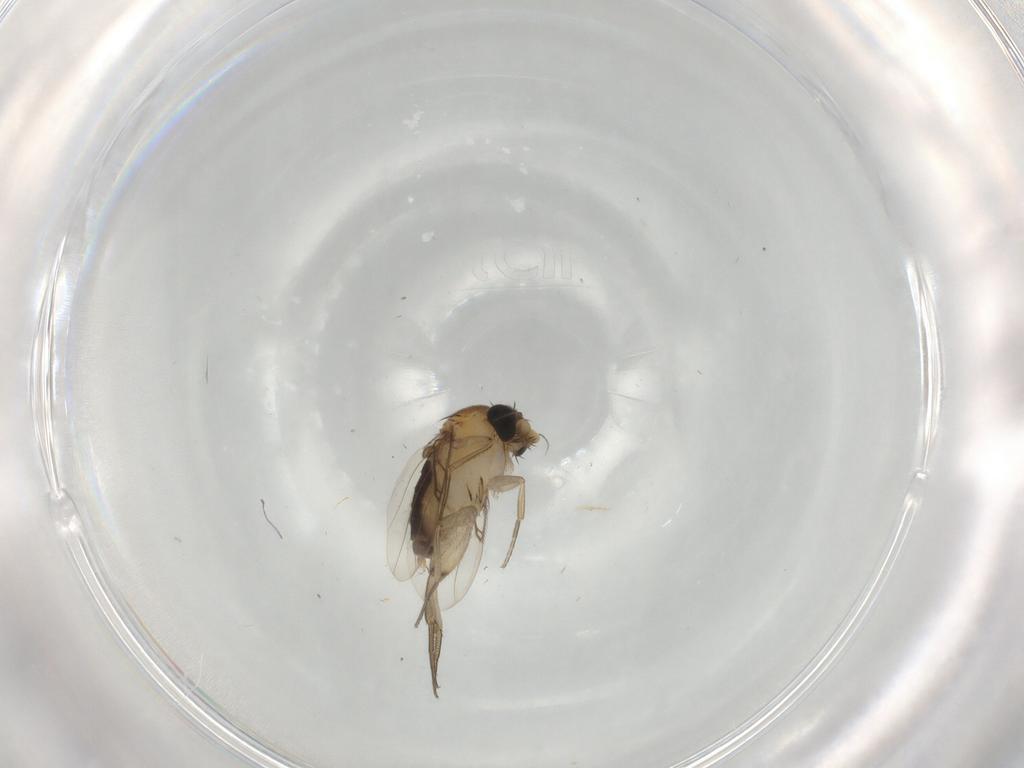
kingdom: Animalia
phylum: Arthropoda
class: Insecta
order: Diptera
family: Phoridae
